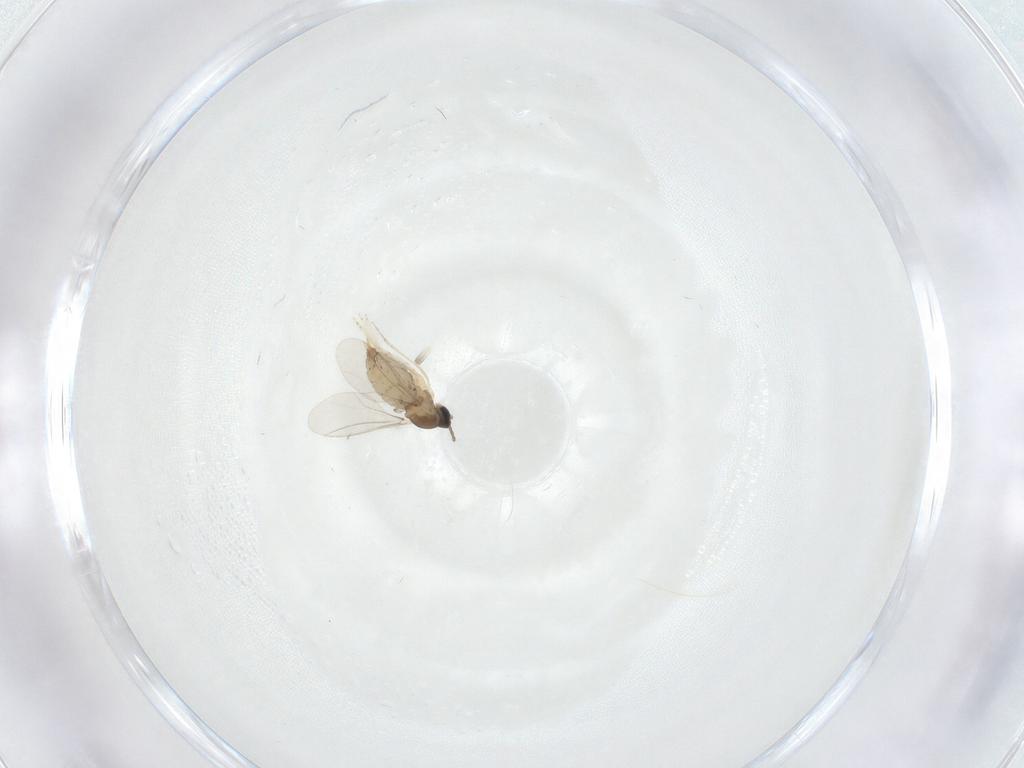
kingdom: Animalia
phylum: Arthropoda
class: Insecta
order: Diptera
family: Cecidomyiidae
